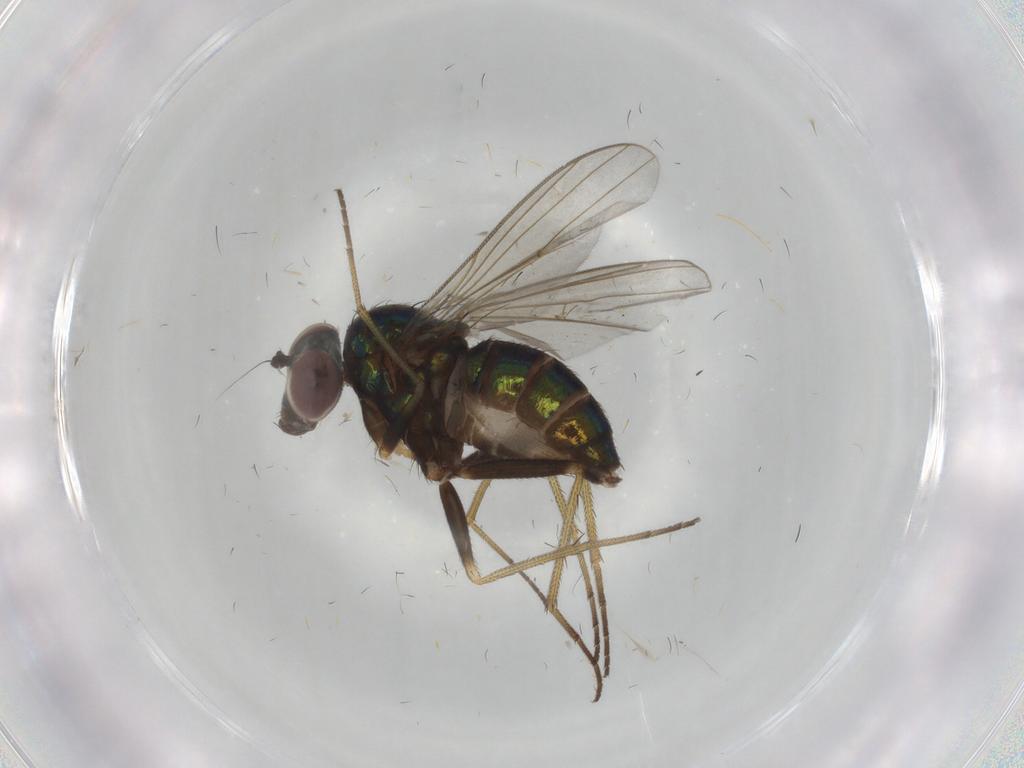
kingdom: Animalia
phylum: Arthropoda
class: Insecta
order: Diptera
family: Dolichopodidae
